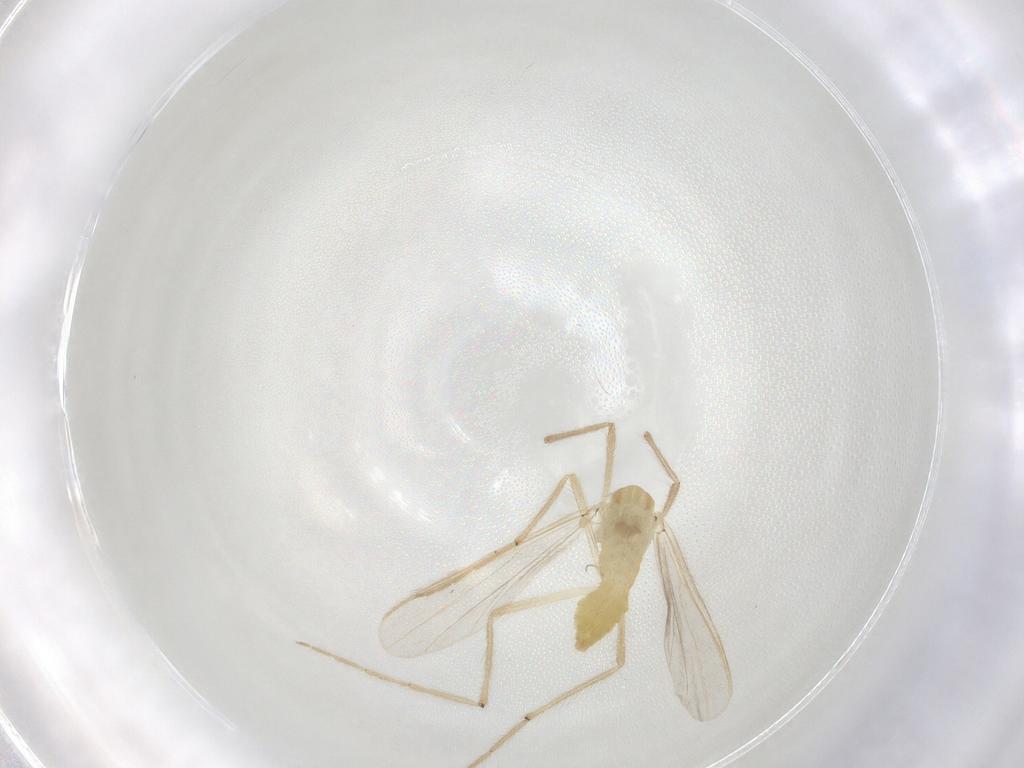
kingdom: Animalia
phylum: Arthropoda
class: Insecta
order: Diptera
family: Chironomidae
